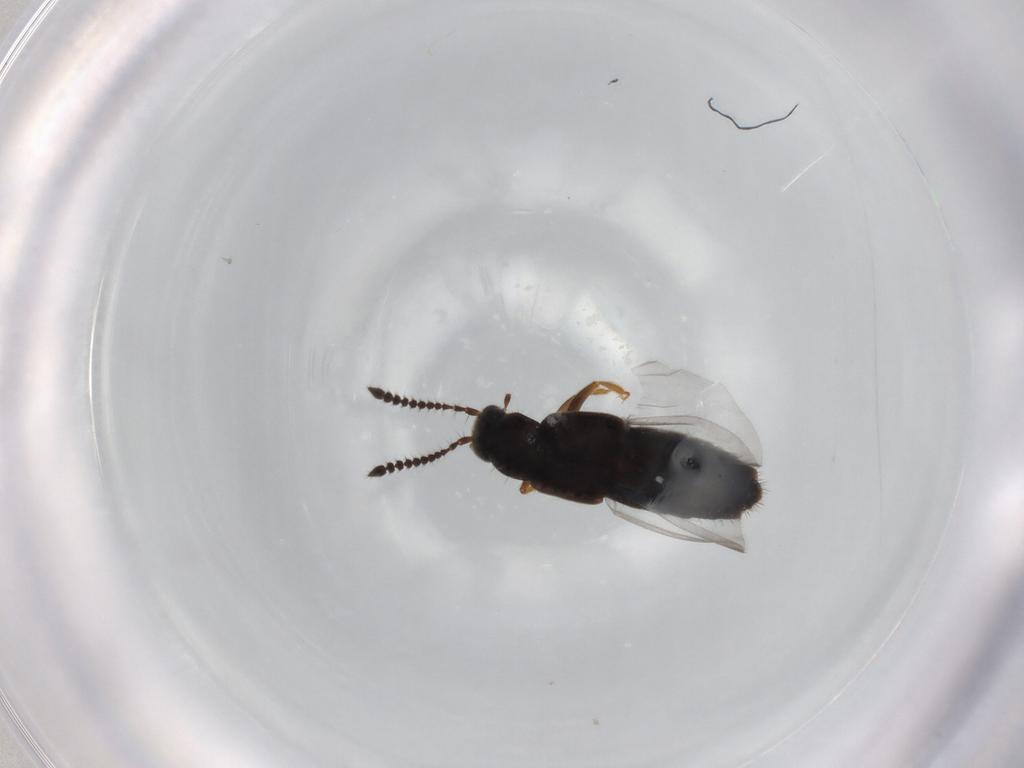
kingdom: Animalia
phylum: Arthropoda
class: Insecta
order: Coleoptera
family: Staphylinidae
